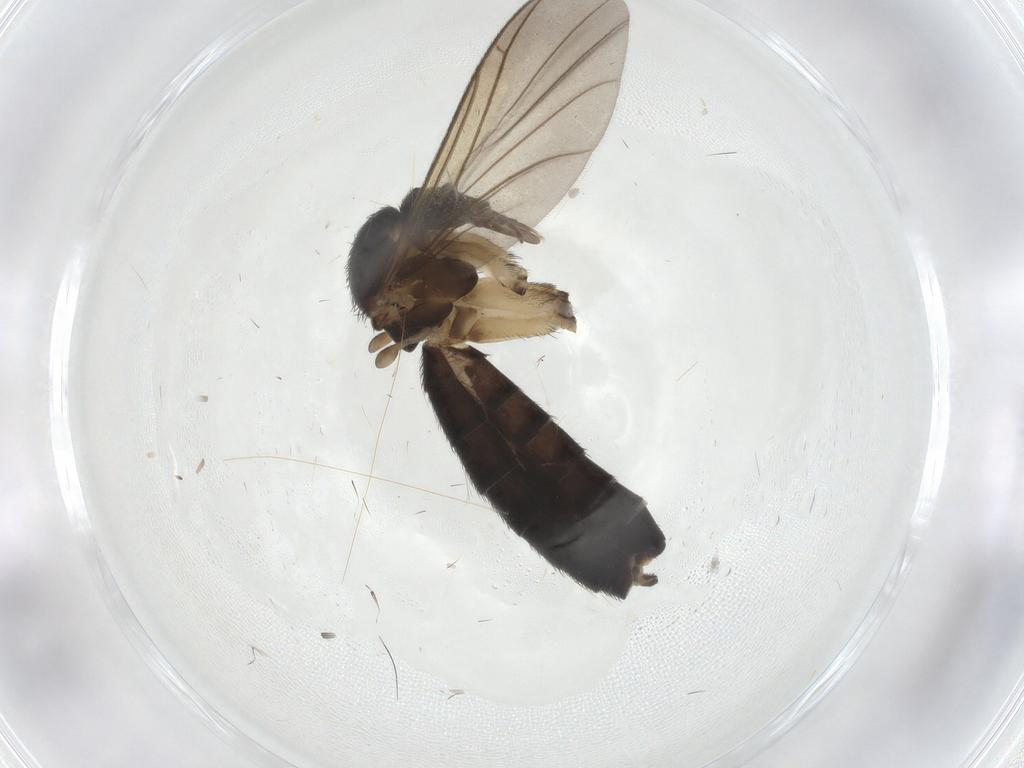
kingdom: Animalia
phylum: Arthropoda
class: Insecta
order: Diptera
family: Keroplatidae
